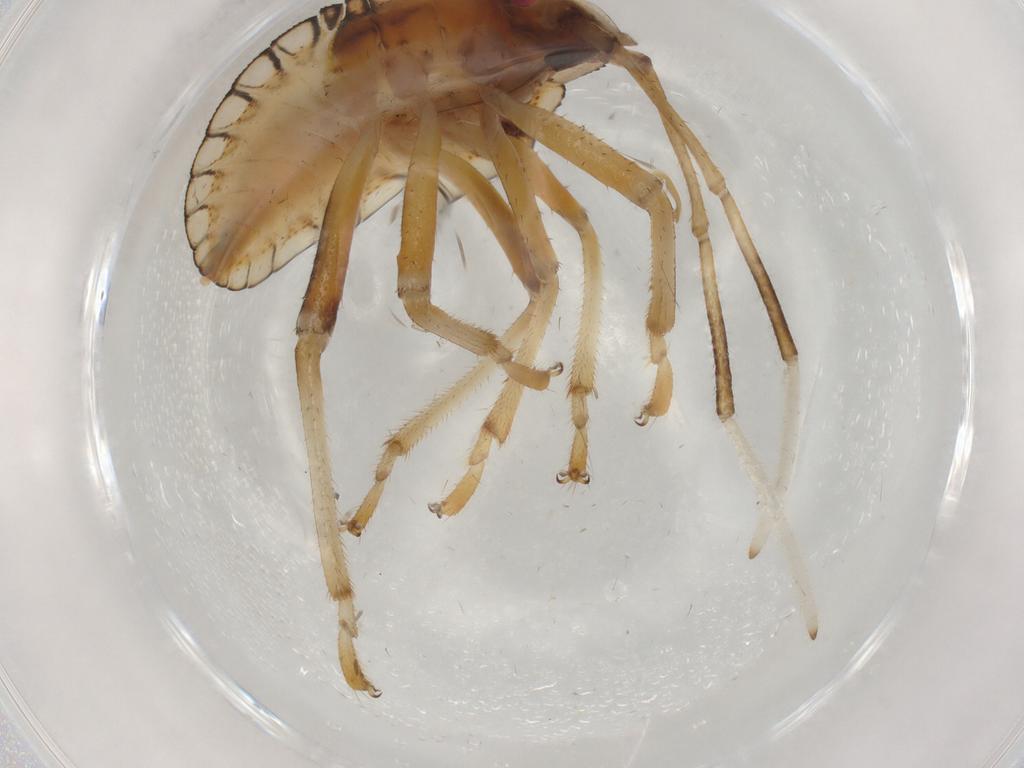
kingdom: Animalia
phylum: Arthropoda
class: Insecta
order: Hemiptera
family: Pentatomidae
